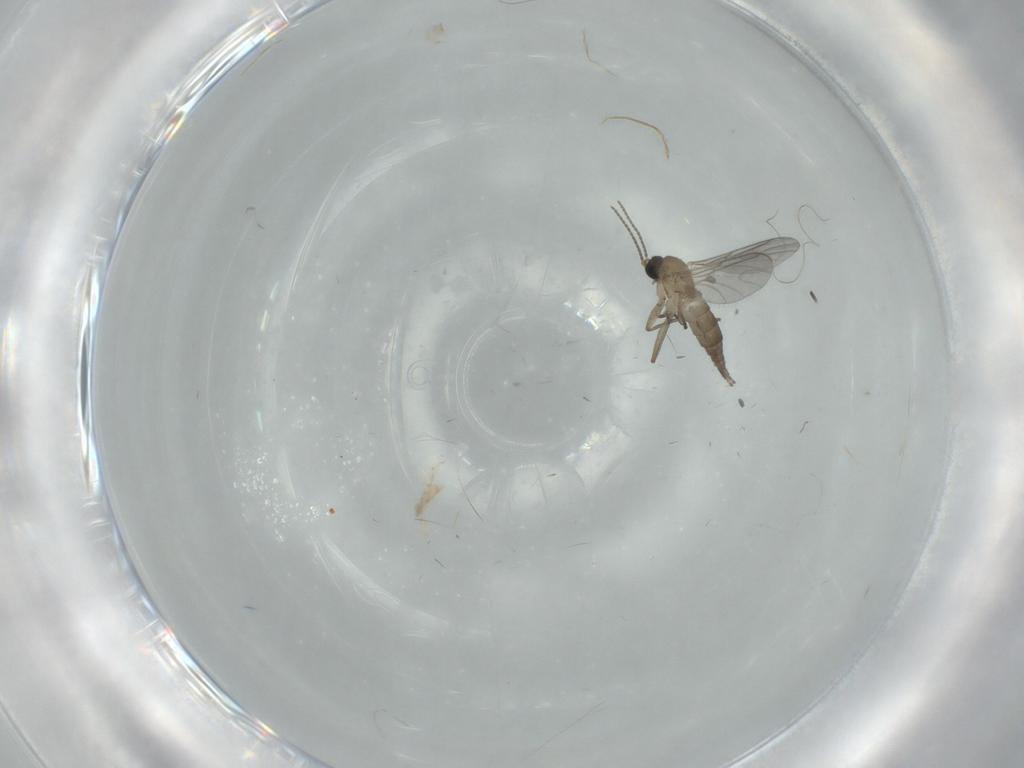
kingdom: Animalia
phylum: Arthropoda
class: Insecta
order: Diptera
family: Sciaridae
